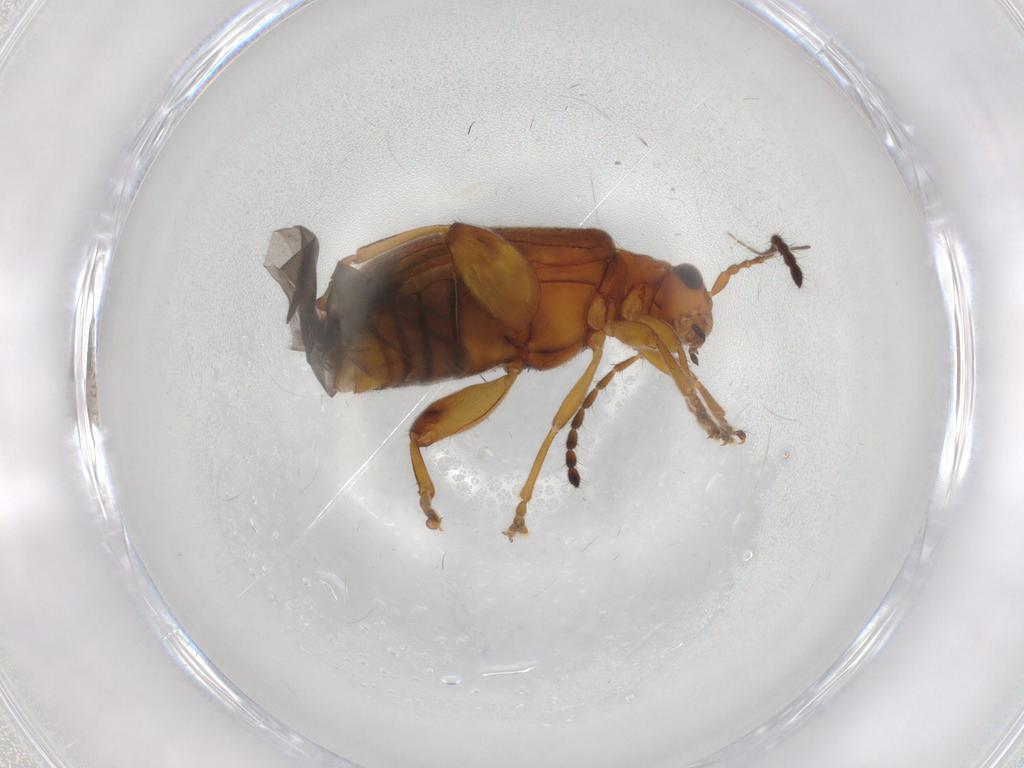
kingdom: Animalia
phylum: Arthropoda
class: Insecta
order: Coleoptera
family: Chrysomelidae
